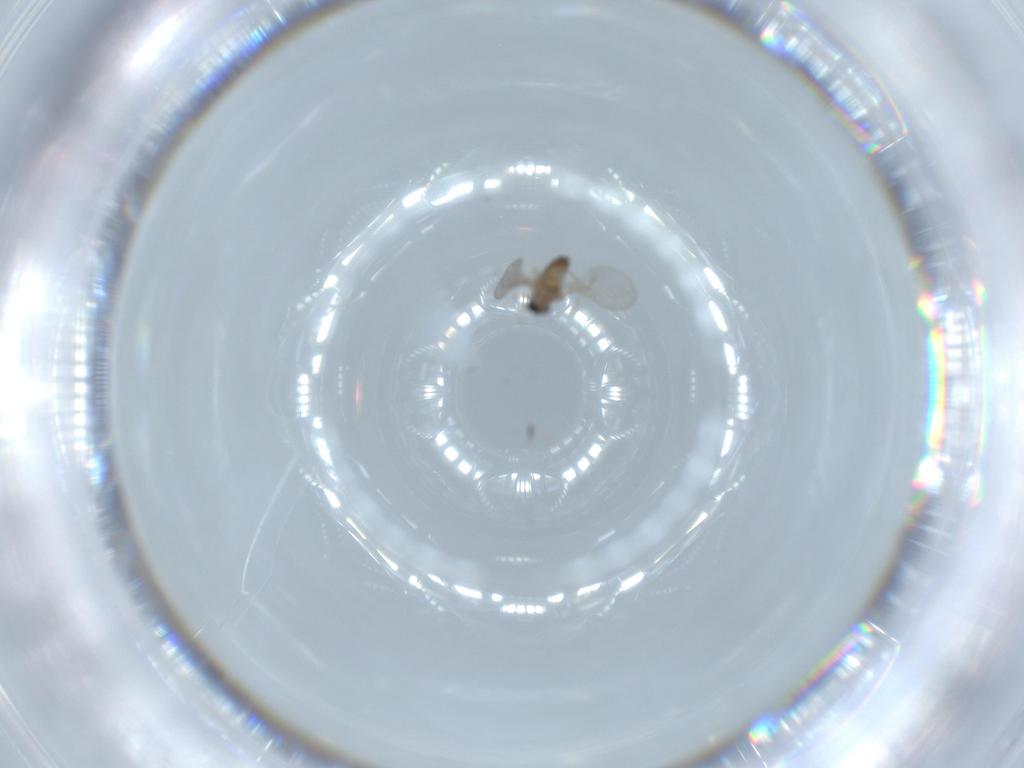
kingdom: Animalia
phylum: Arthropoda
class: Insecta
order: Diptera
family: Cecidomyiidae
